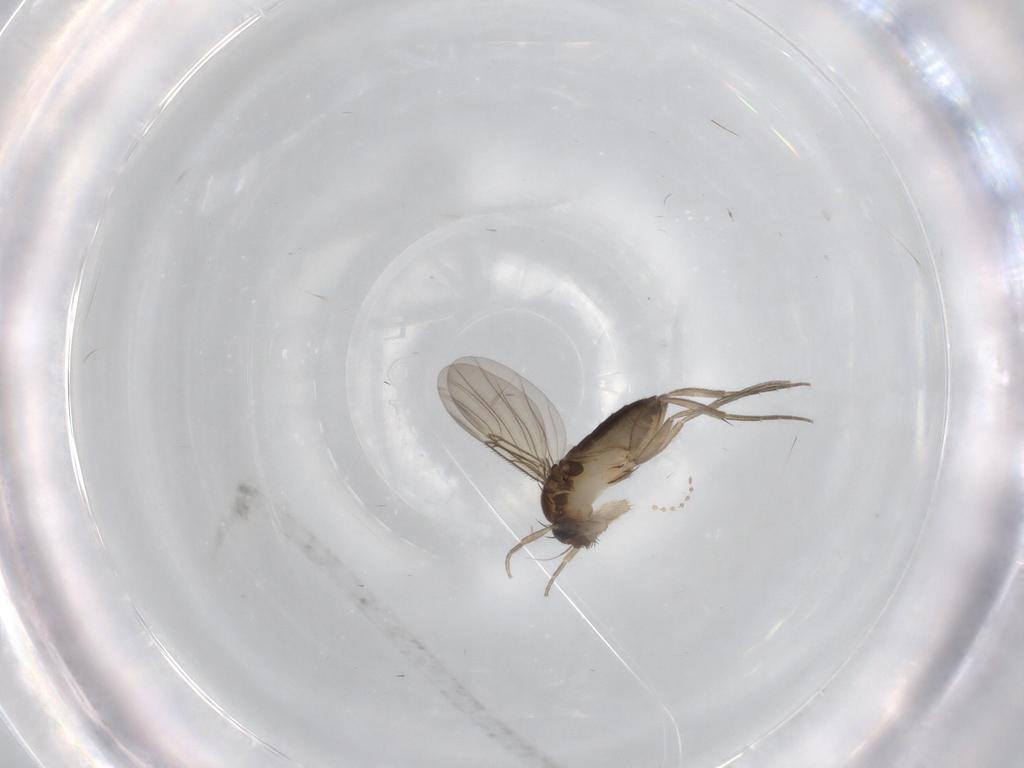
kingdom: Animalia
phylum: Arthropoda
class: Insecta
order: Diptera
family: Phoridae
